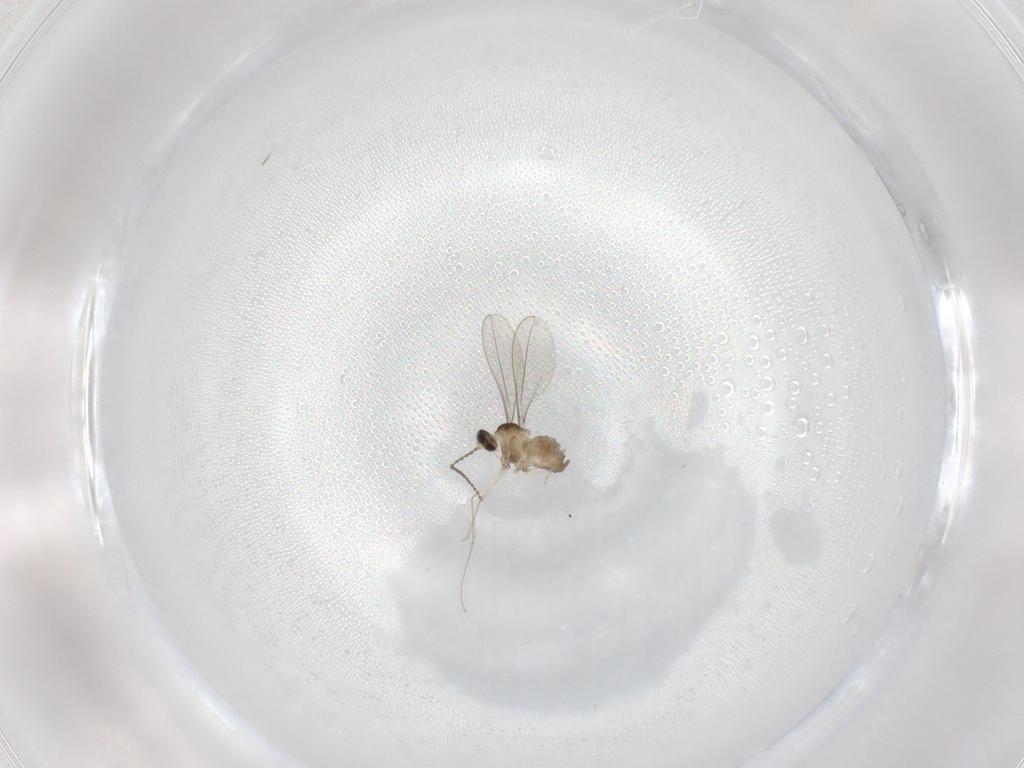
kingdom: Animalia
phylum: Arthropoda
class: Insecta
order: Diptera
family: Cecidomyiidae
